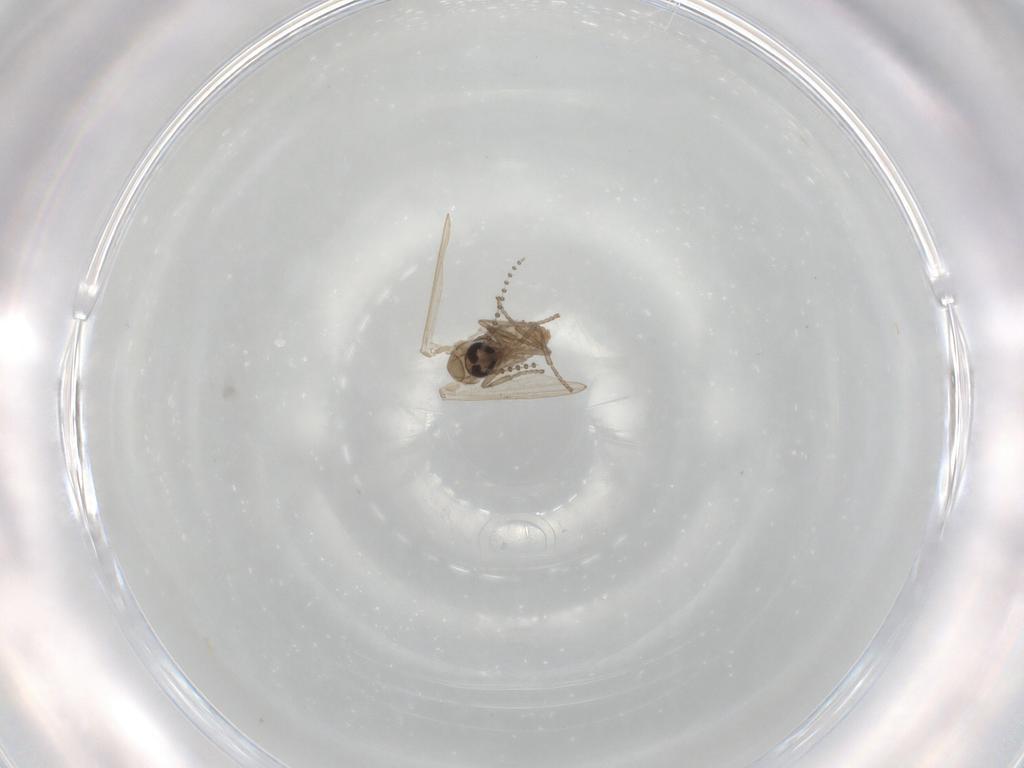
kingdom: Animalia
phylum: Arthropoda
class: Insecta
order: Diptera
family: Psychodidae
